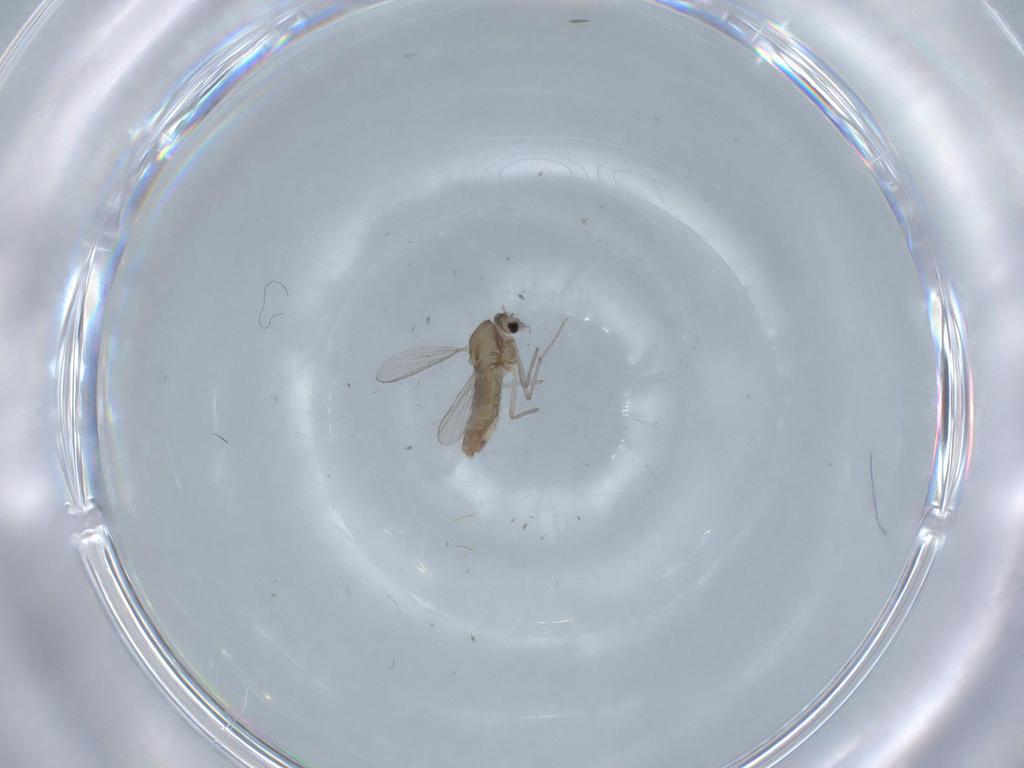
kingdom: Animalia
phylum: Arthropoda
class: Insecta
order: Diptera
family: Chironomidae
